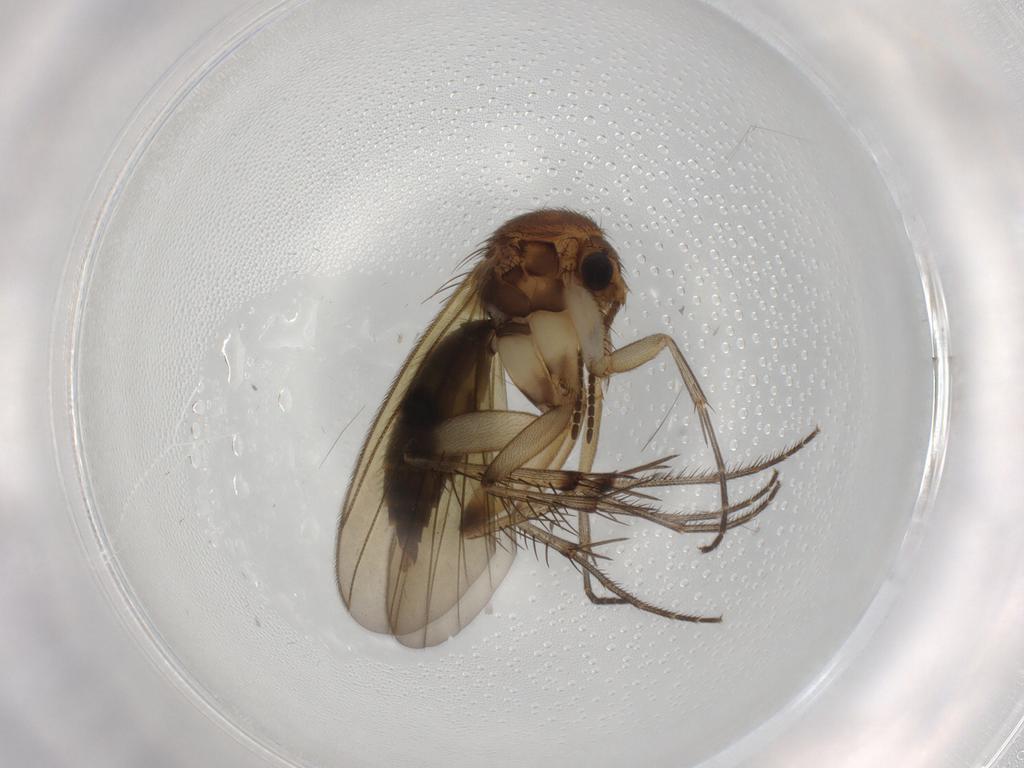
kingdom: Animalia
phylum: Arthropoda
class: Insecta
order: Diptera
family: Mycetophilidae
